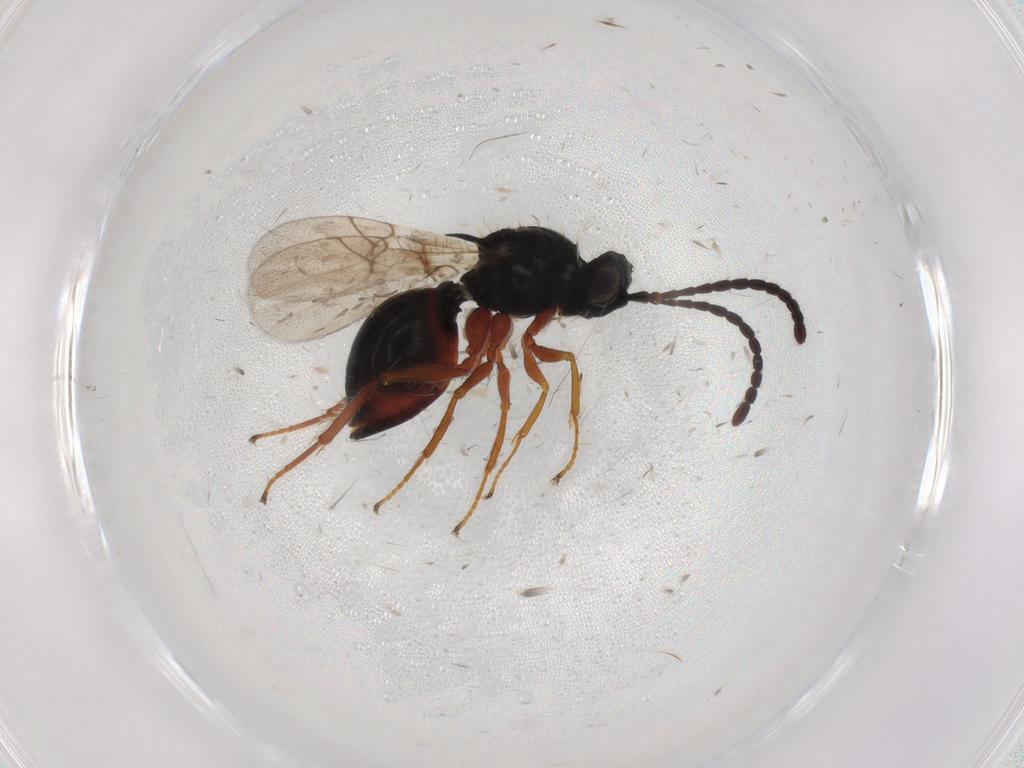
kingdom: Animalia
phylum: Arthropoda
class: Insecta
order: Hymenoptera
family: Figitidae
